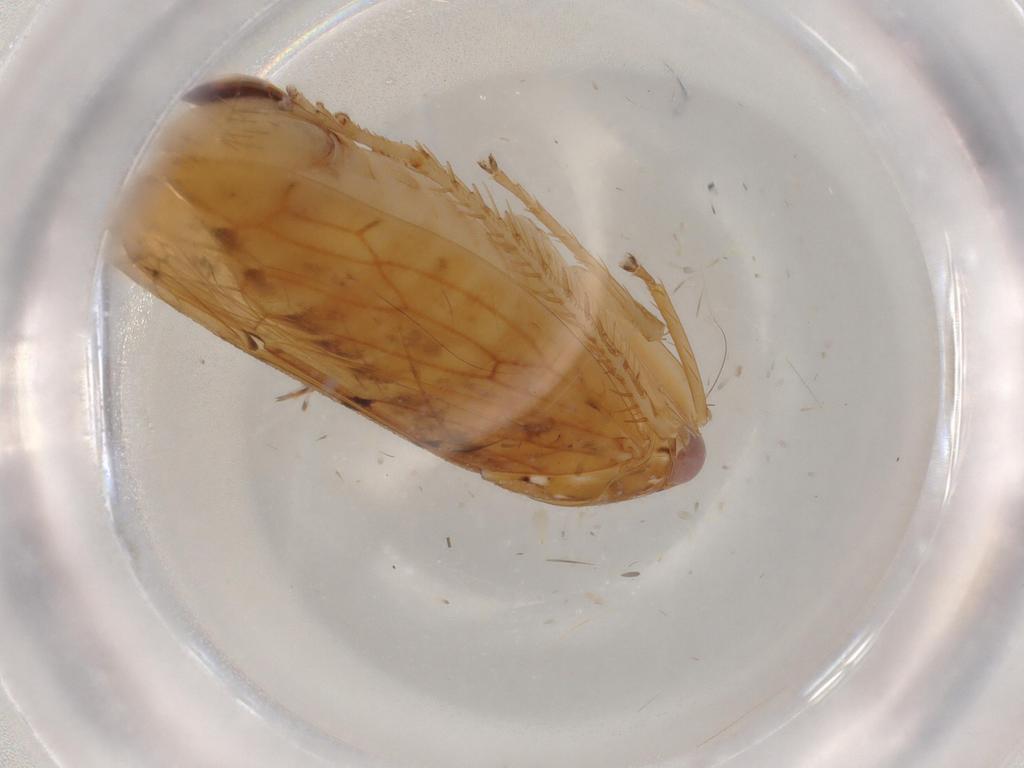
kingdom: Animalia
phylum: Arthropoda
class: Insecta
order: Hemiptera
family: Cicadellidae
